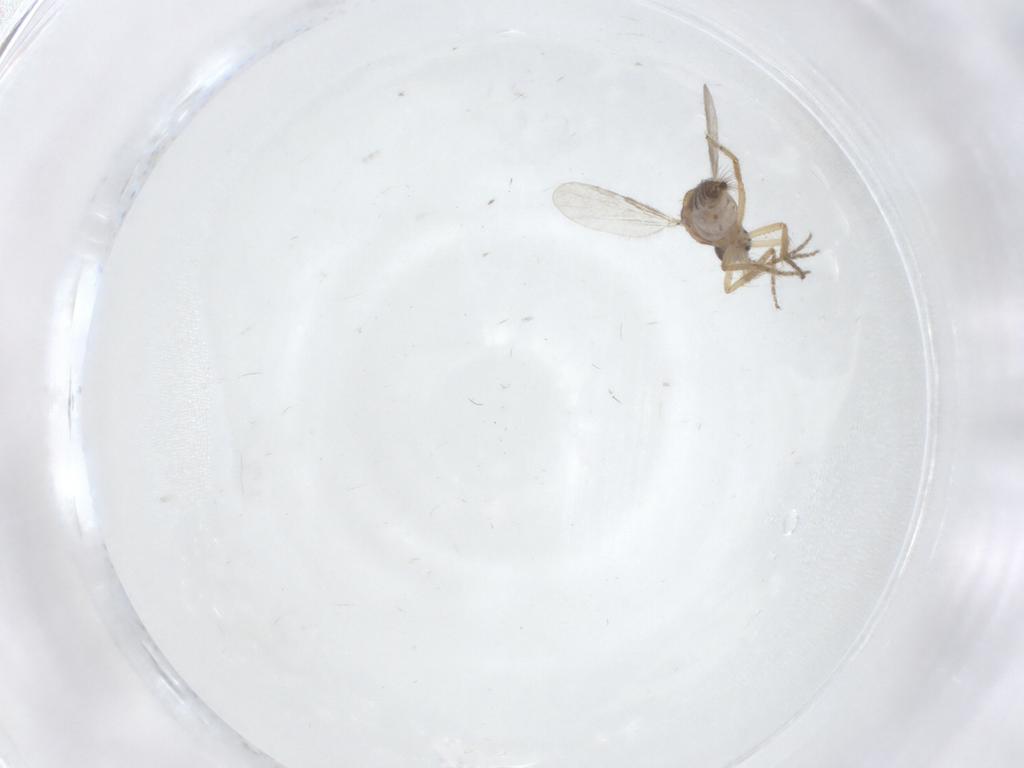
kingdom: Animalia
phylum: Arthropoda
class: Insecta
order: Diptera
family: Ceratopogonidae
